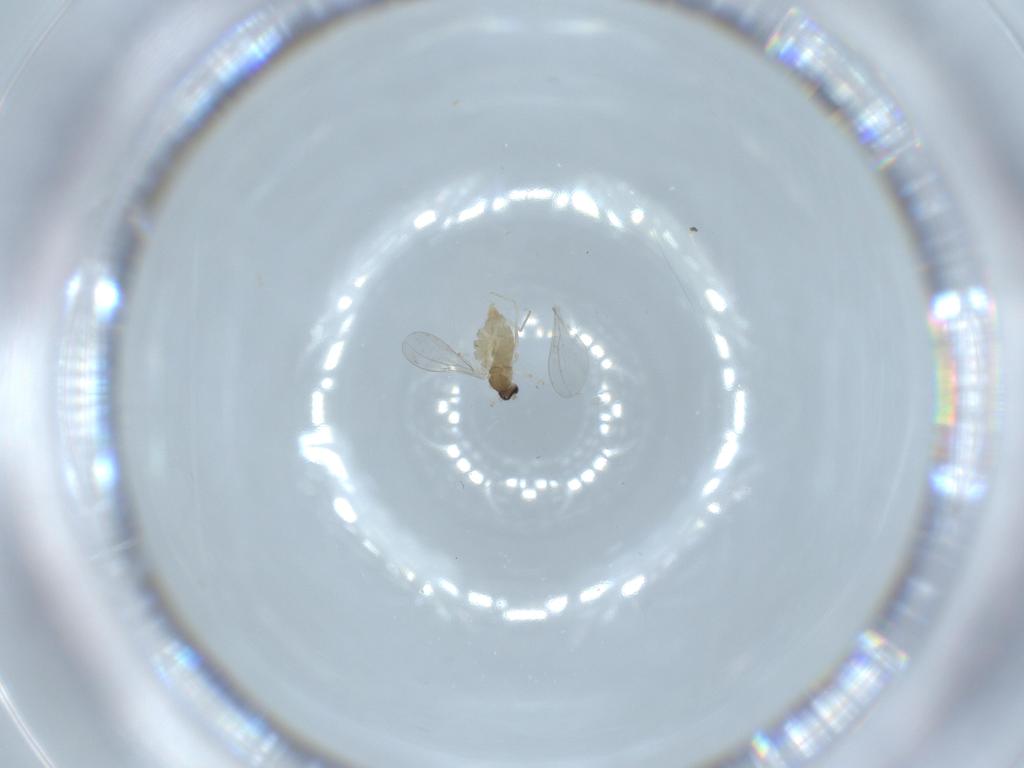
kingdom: Animalia
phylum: Arthropoda
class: Insecta
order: Diptera
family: Cecidomyiidae
